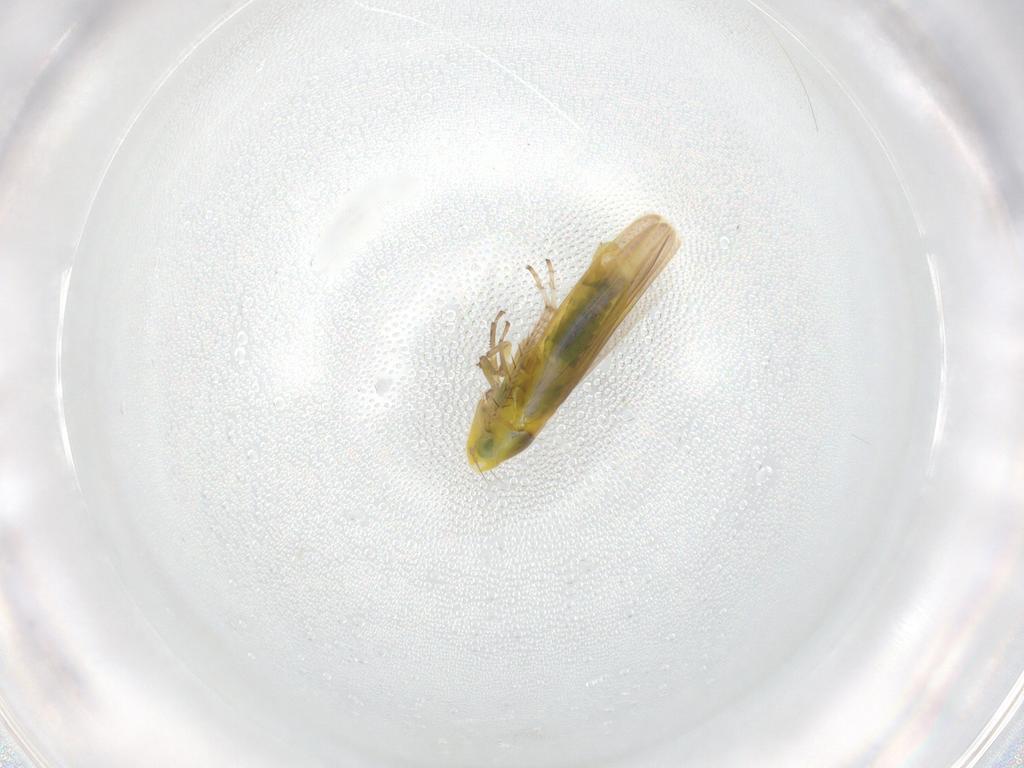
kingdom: Animalia
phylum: Arthropoda
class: Insecta
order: Hemiptera
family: Cicadellidae
